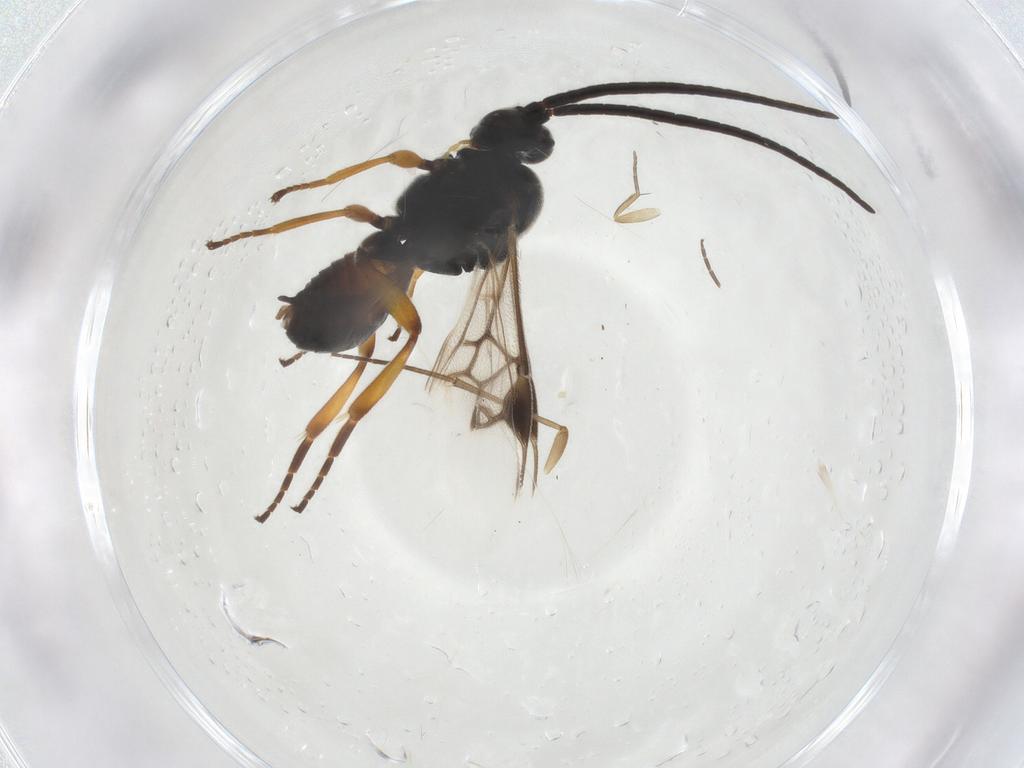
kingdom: Animalia
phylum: Arthropoda
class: Insecta
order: Hymenoptera
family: Braconidae
